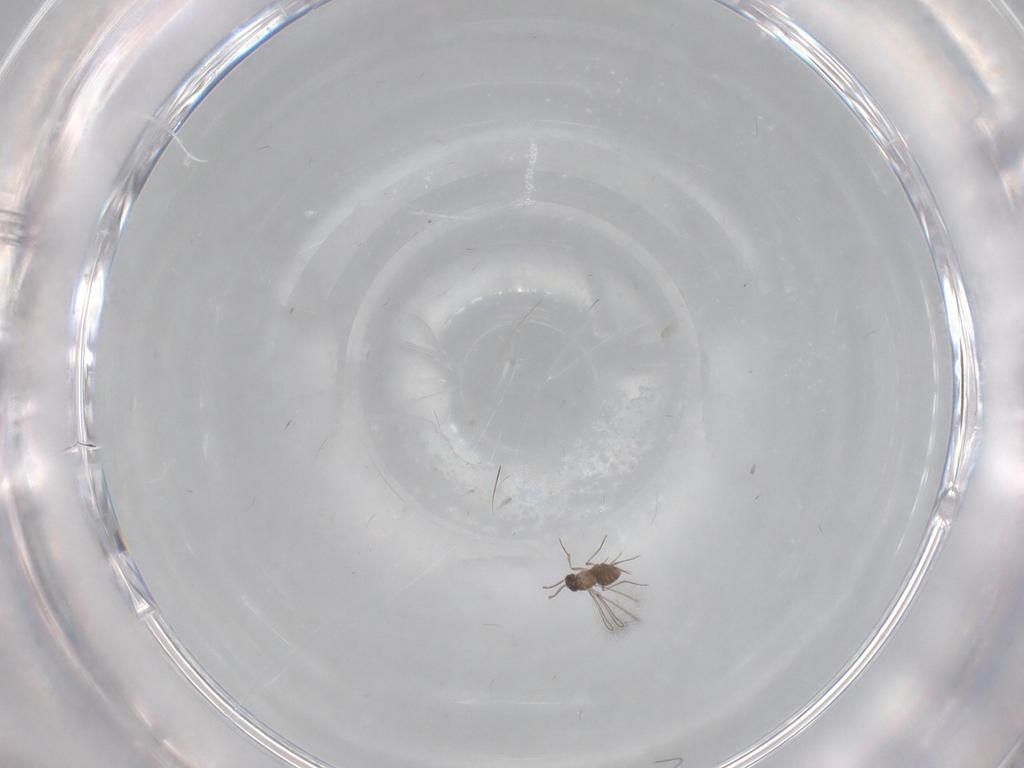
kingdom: Animalia
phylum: Arthropoda
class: Insecta
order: Hymenoptera
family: Mymaridae
